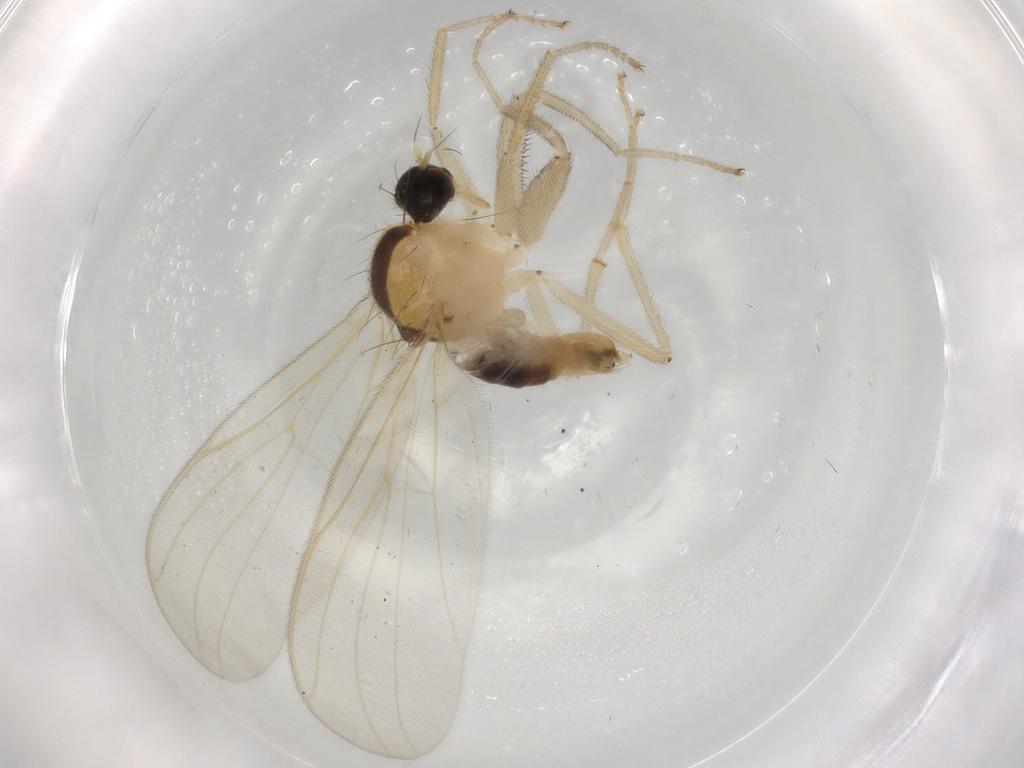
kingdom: Animalia
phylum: Arthropoda
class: Insecta
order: Diptera
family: Hybotidae
